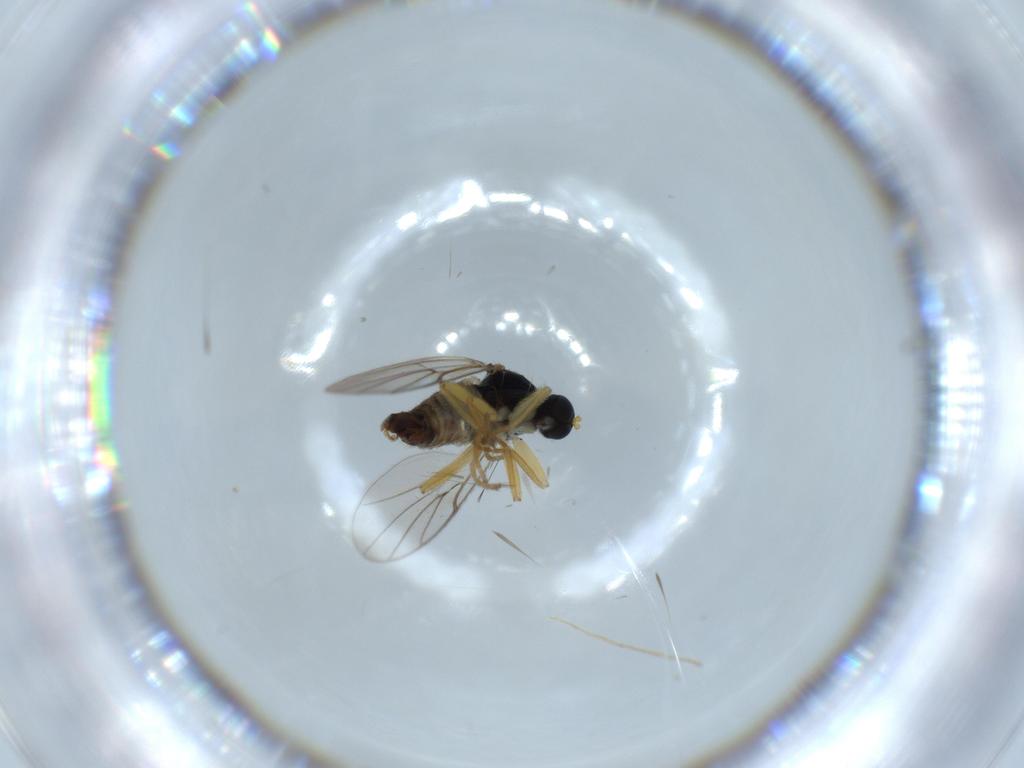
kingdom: Animalia
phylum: Arthropoda
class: Insecta
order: Diptera
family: Hybotidae
